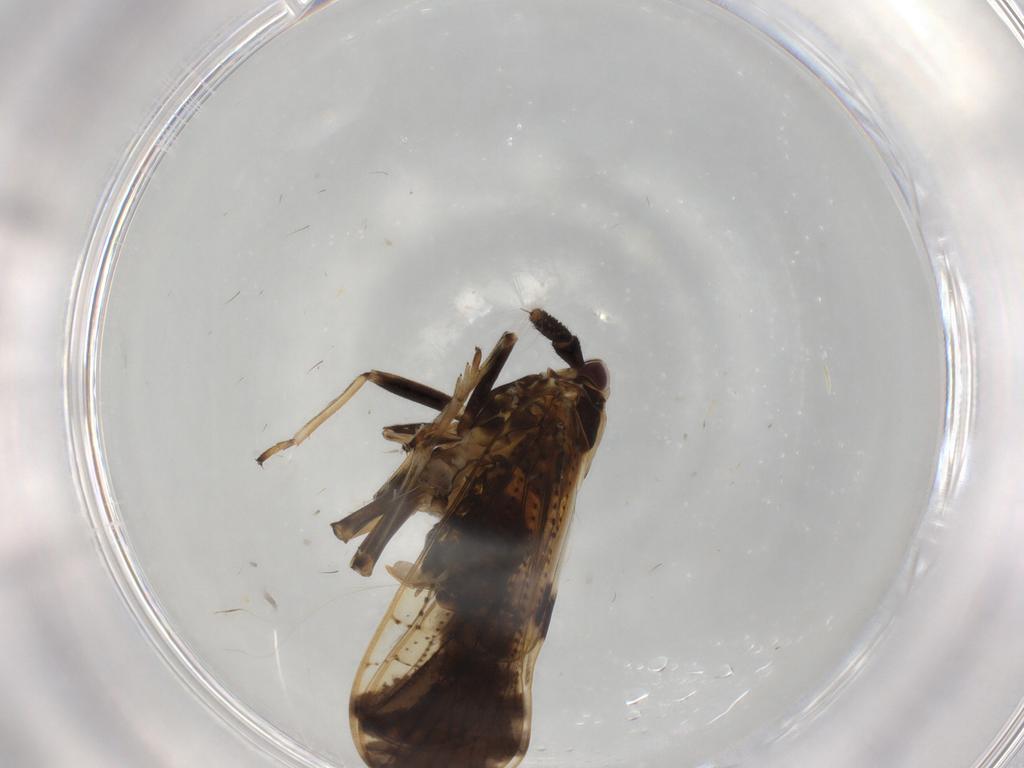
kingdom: Animalia
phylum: Arthropoda
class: Insecta
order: Hemiptera
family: Delphacidae
